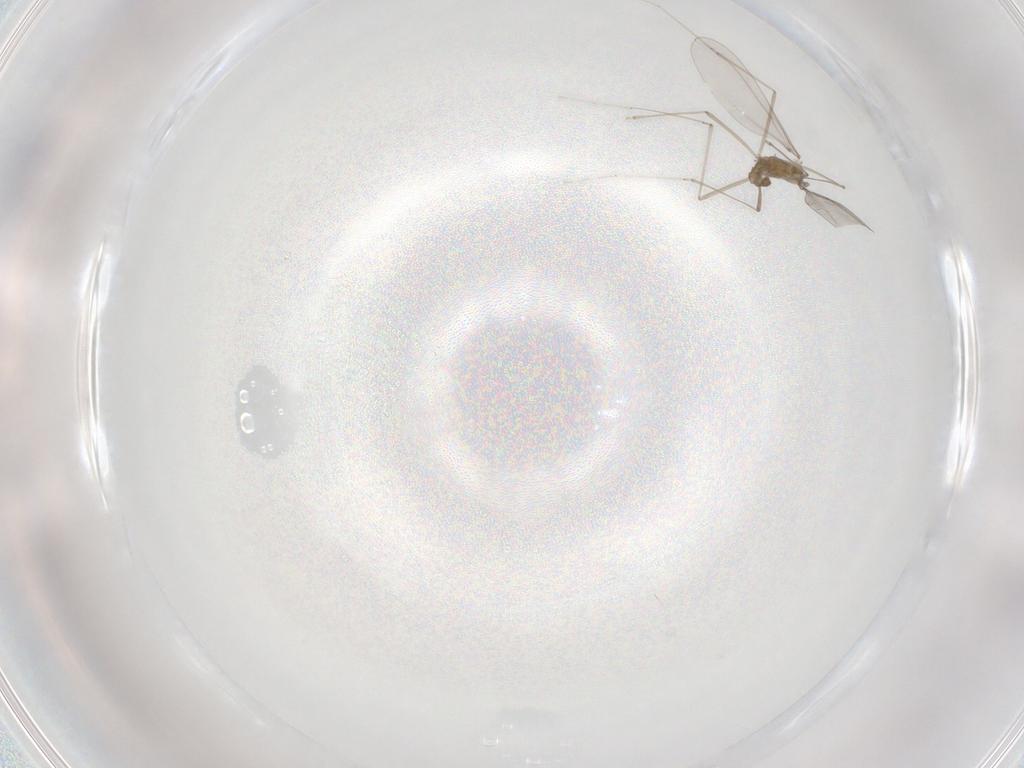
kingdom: Animalia
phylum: Arthropoda
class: Insecta
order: Diptera
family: Cecidomyiidae
